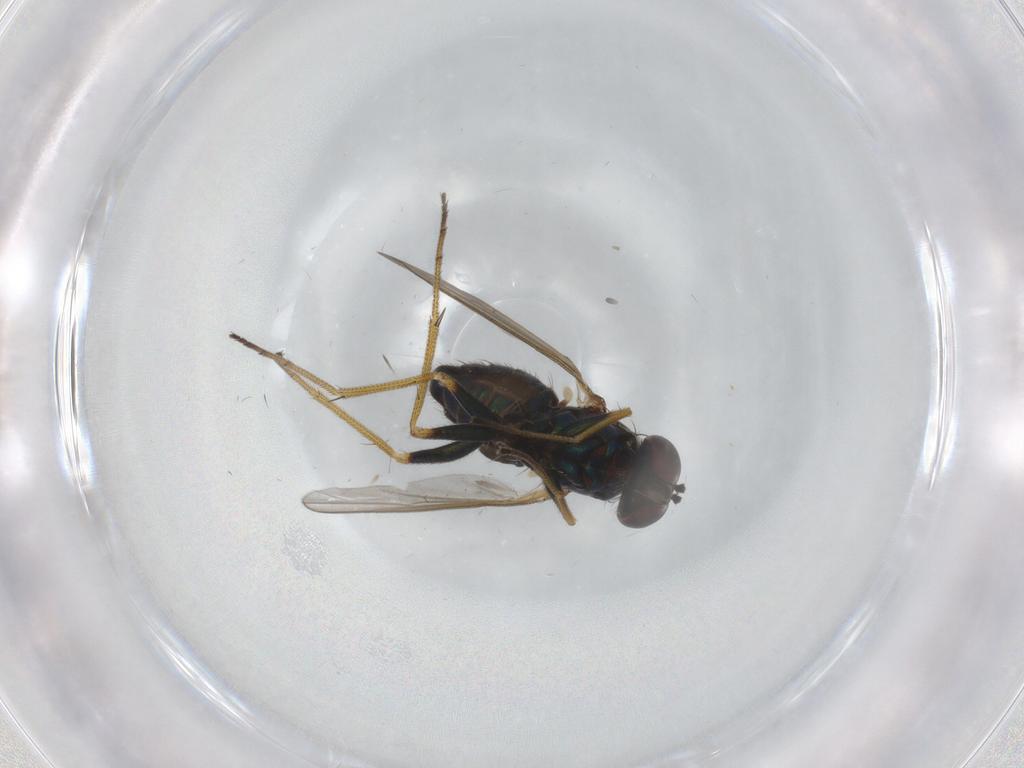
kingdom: Animalia
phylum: Arthropoda
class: Insecta
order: Diptera
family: Dolichopodidae
